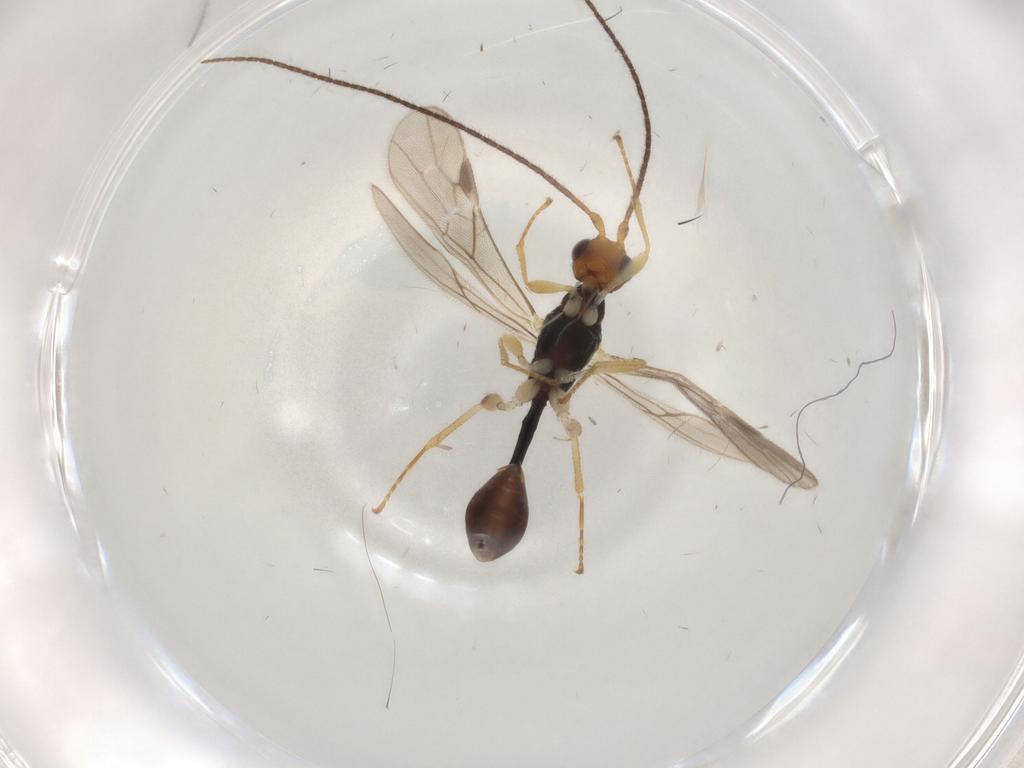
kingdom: Animalia
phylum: Arthropoda
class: Insecta
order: Hymenoptera
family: Braconidae
